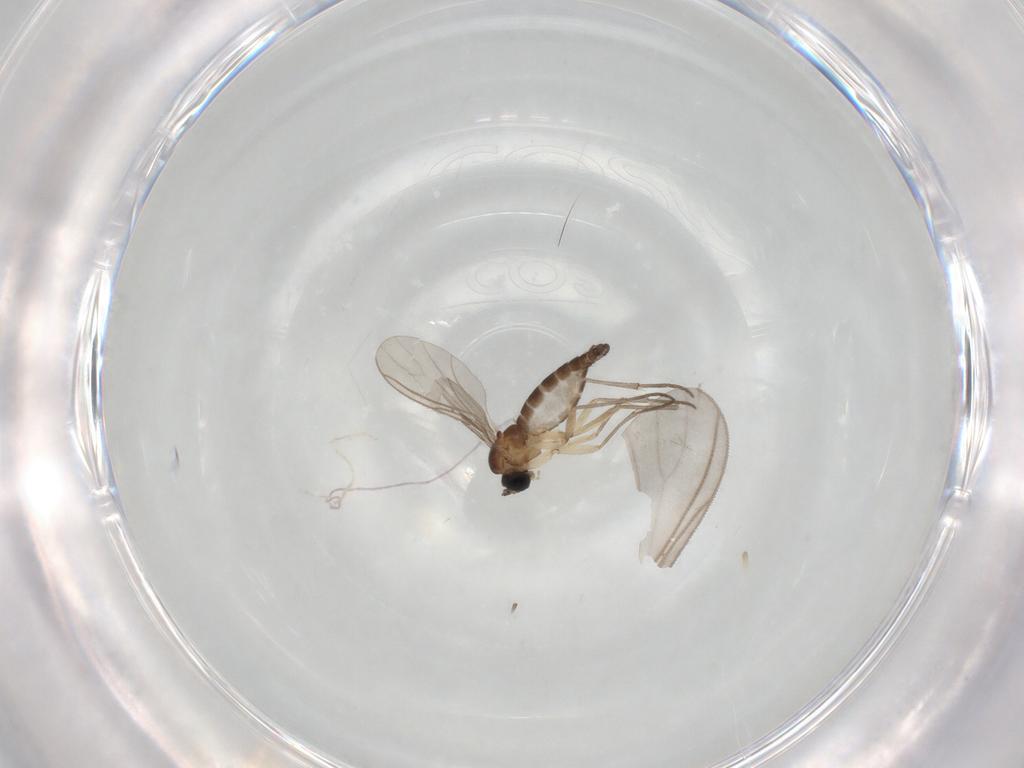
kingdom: Animalia
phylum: Arthropoda
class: Insecta
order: Diptera
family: Sciaridae
